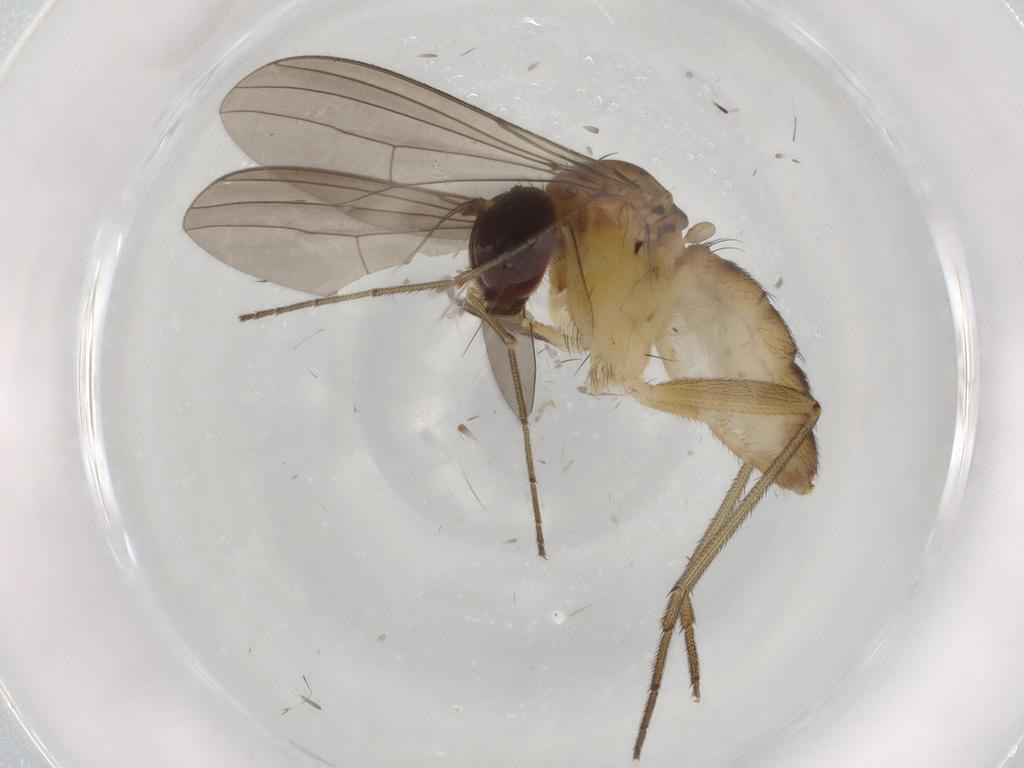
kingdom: Animalia
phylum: Arthropoda
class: Insecta
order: Diptera
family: Dolichopodidae
